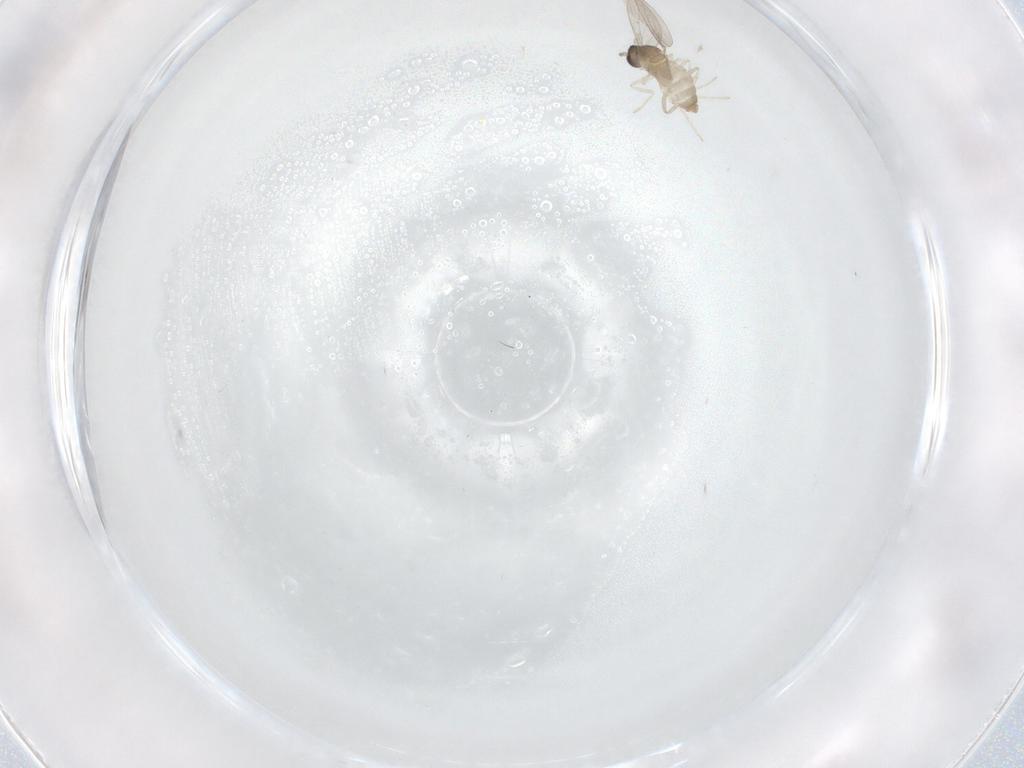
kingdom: Animalia
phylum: Arthropoda
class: Insecta
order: Diptera
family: Cecidomyiidae
